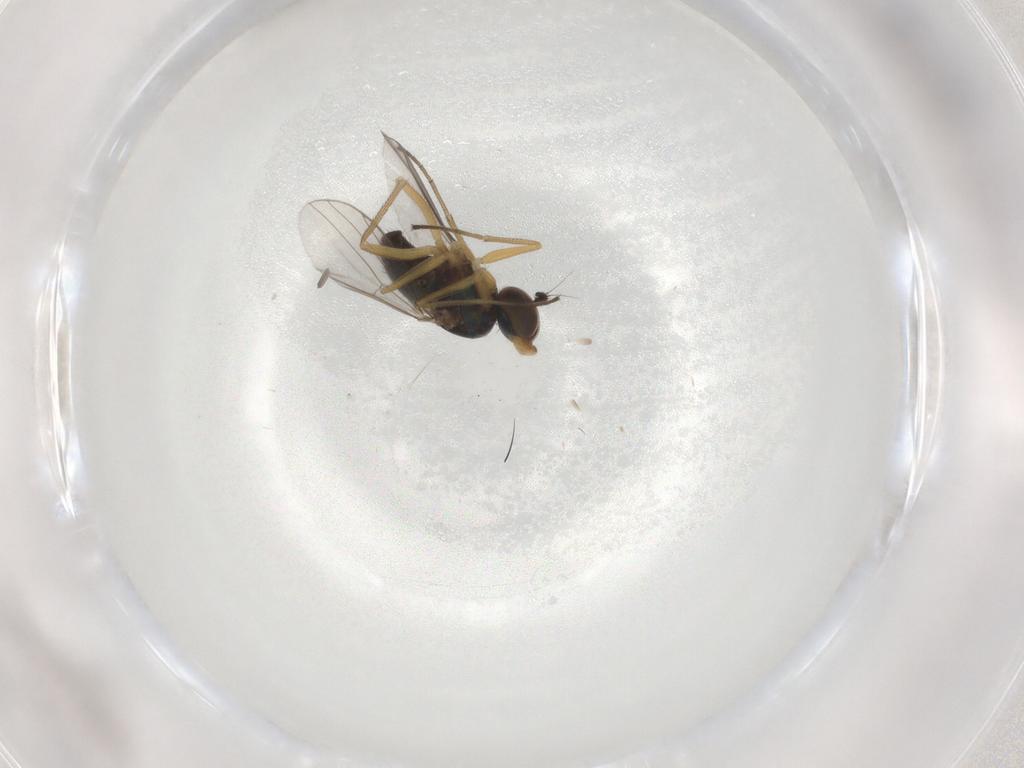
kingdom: Animalia
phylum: Arthropoda
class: Insecta
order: Diptera
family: Dolichopodidae
